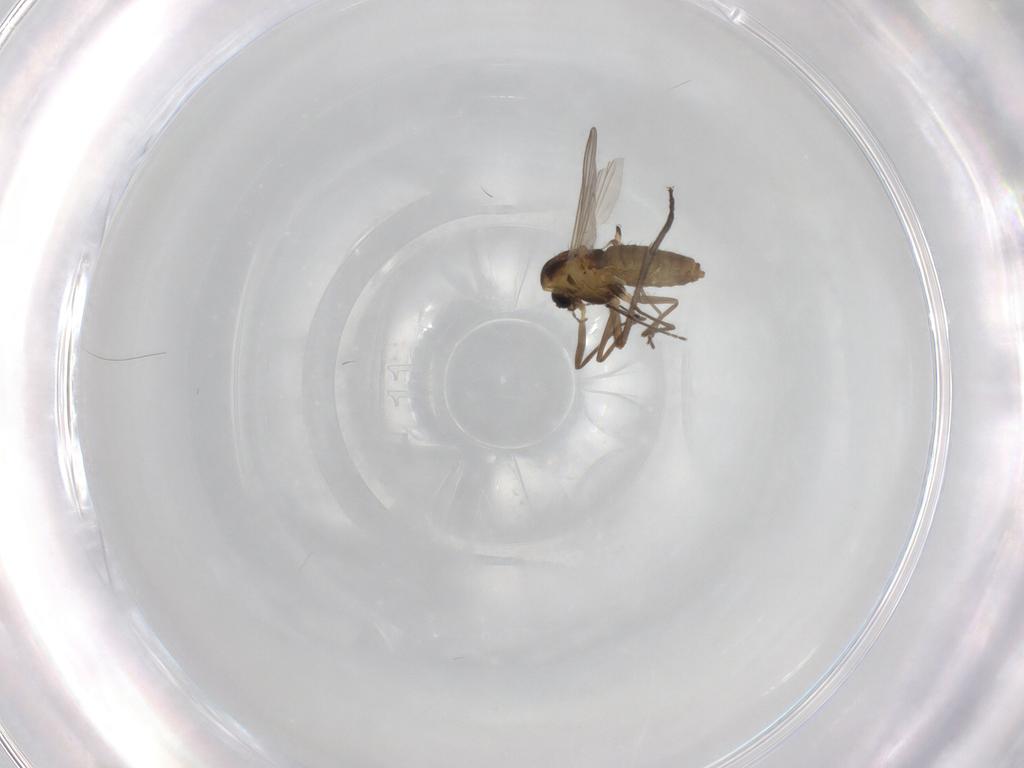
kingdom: Animalia
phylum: Arthropoda
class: Insecta
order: Diptera
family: Chironomidae
